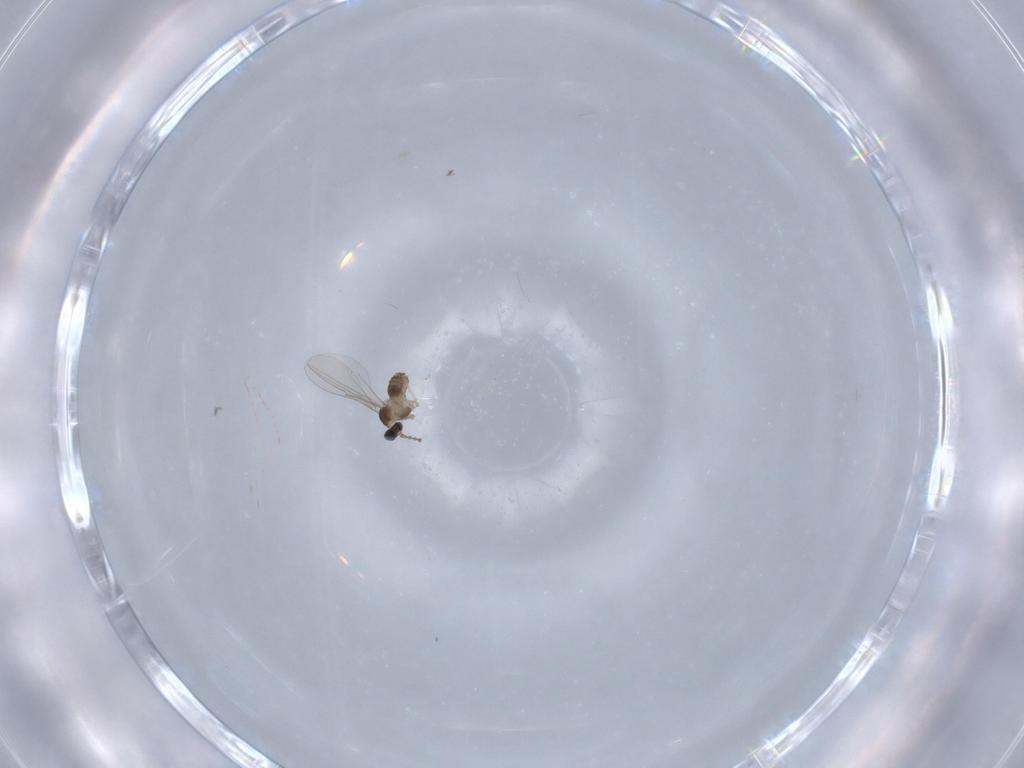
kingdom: Animalia
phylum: Arthropoda
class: Insecta
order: Diptera
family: Cecidomyiidae
